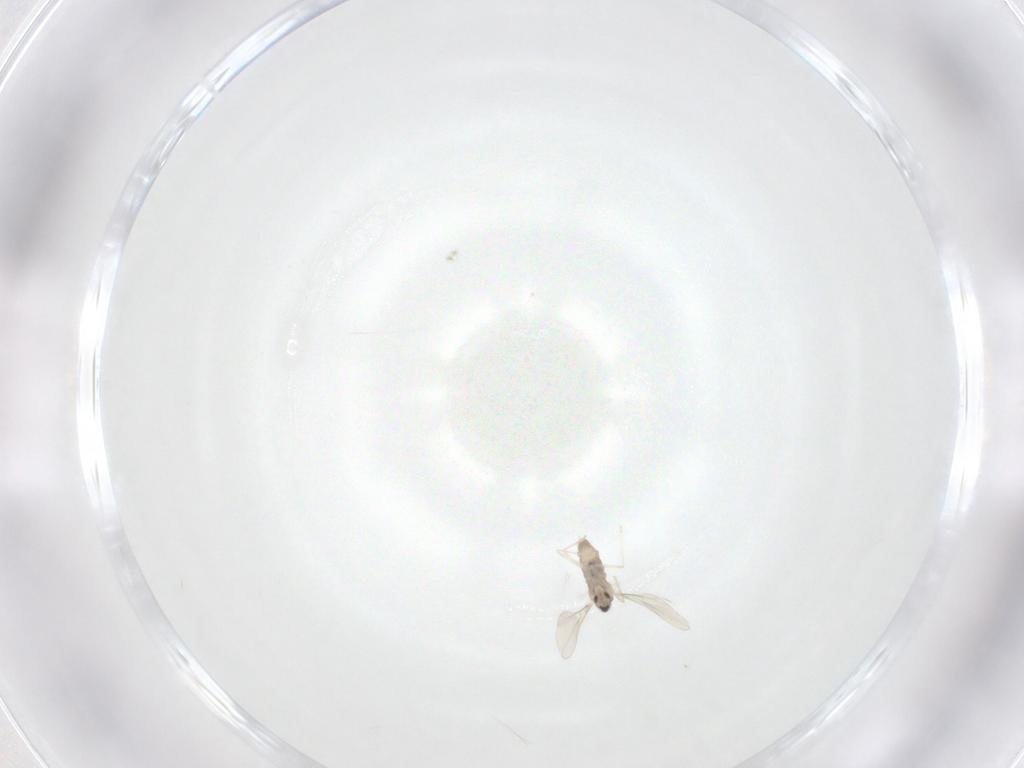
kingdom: Animalia
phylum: Arthropoda
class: Insecta
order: Diptera
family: Cecidomyiidae
